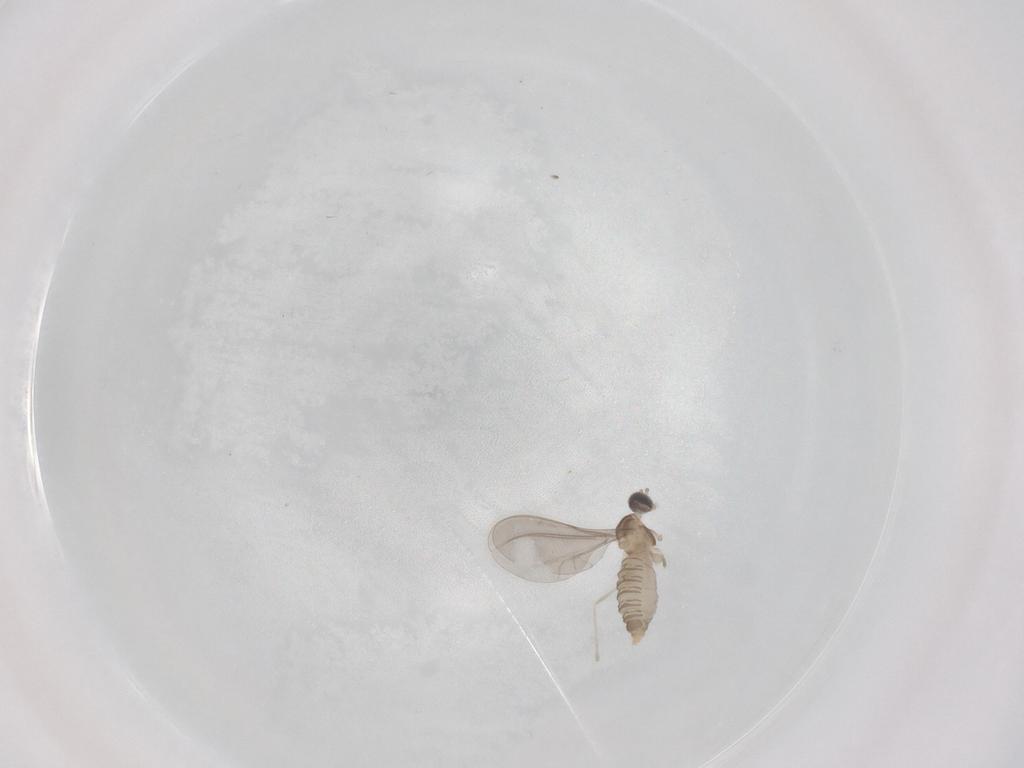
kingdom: Animalia
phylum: Arthropoda
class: Insecta
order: Diptera
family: Cecidomyiidae
